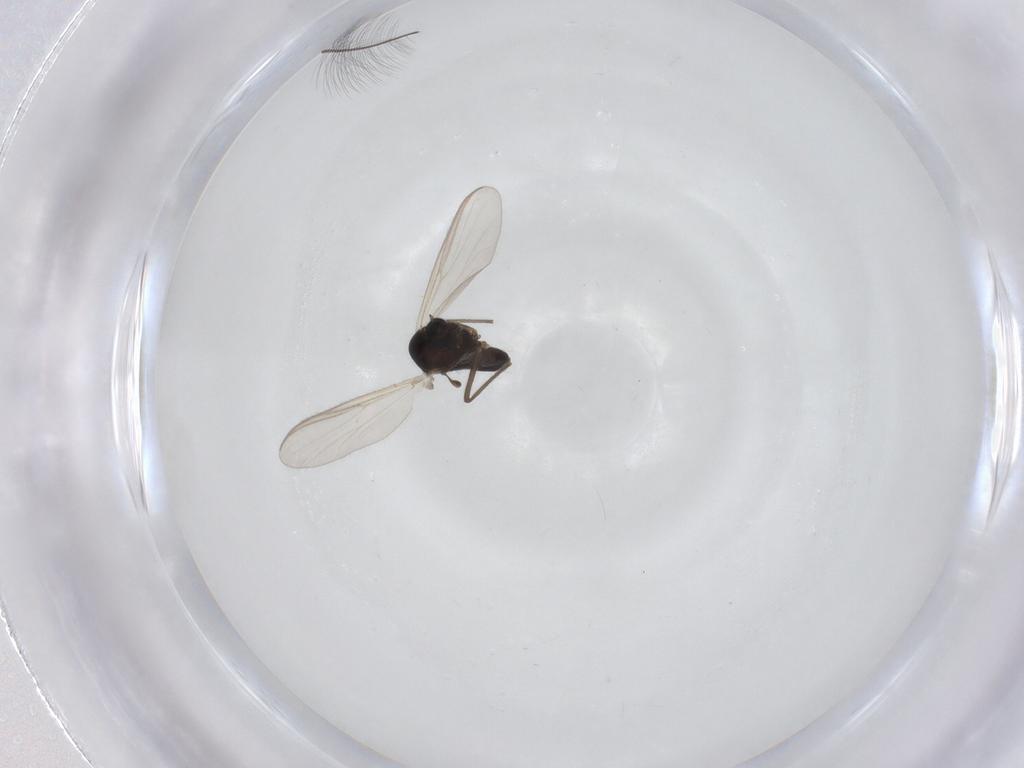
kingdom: Animalia
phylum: Arthropoda
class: Insecta
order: Diptera
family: Chironomidae
